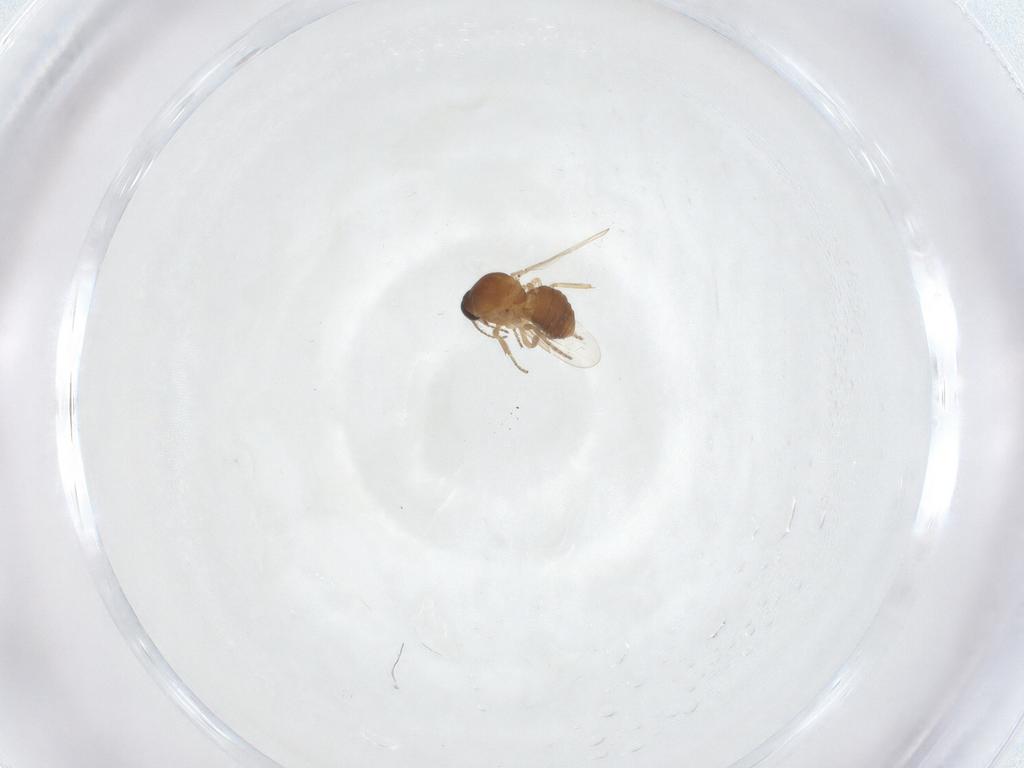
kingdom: Animalia
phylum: Arthropoda
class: Insecta
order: Diptera
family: Ceratopogonidae
